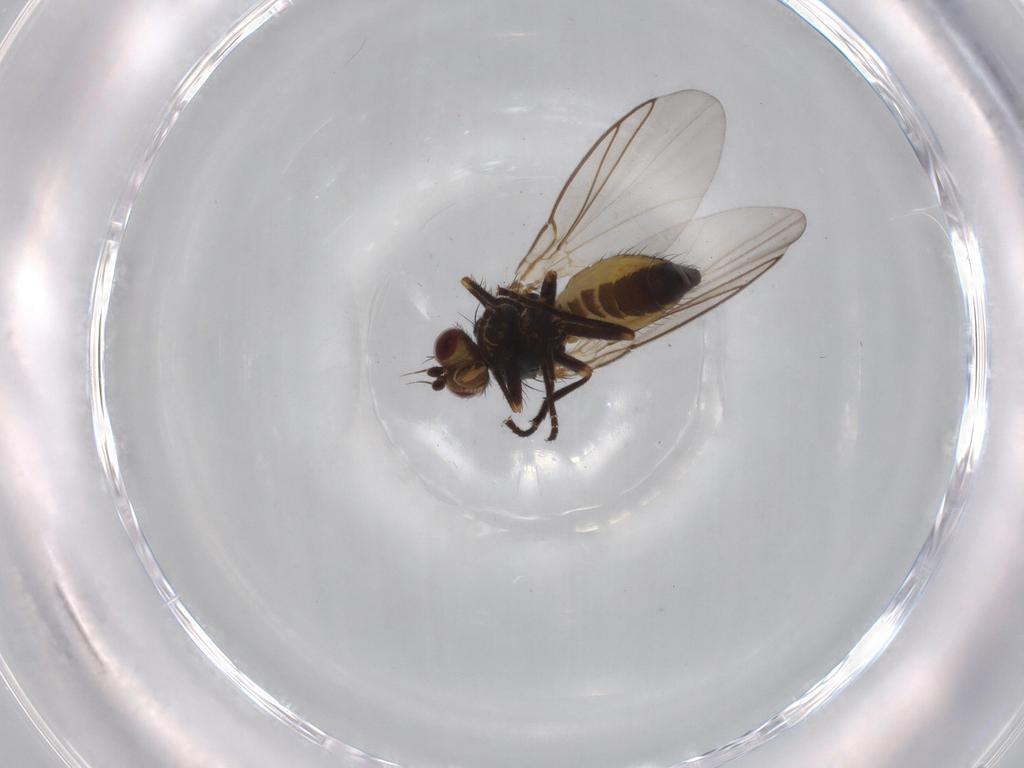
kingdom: Animalia
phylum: Arthropoda
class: Insecta
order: Diptera
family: Agromyzidae
